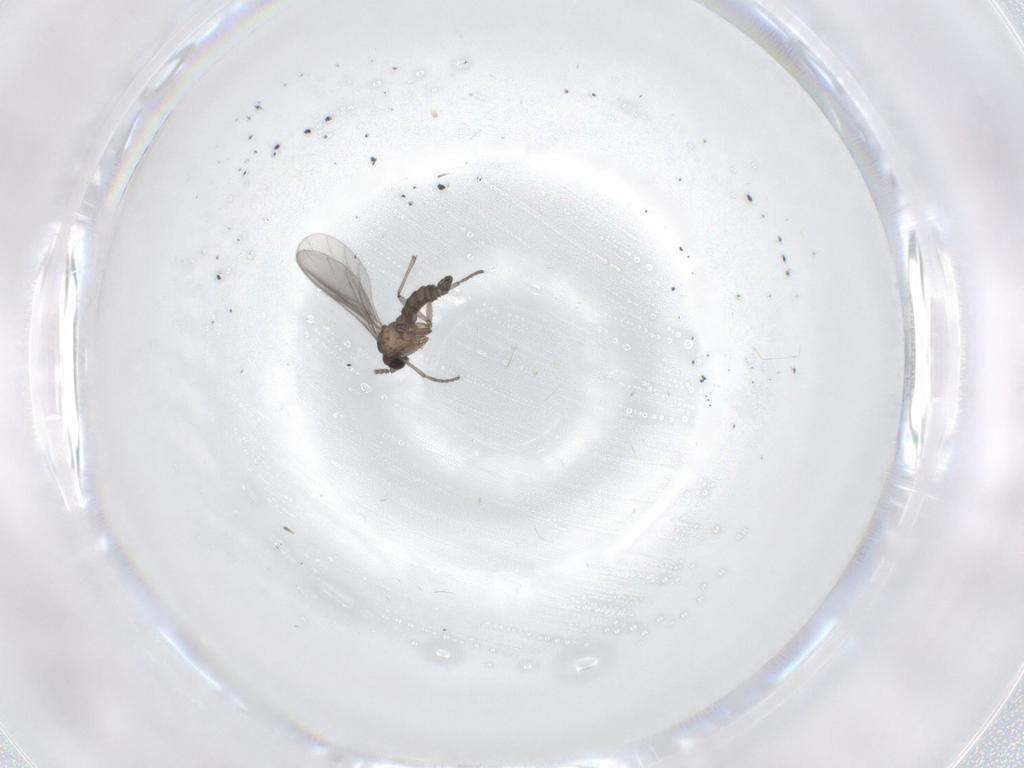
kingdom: Animalia
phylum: Arthropoda
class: Insecta
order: Diptera
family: Sciaridae
